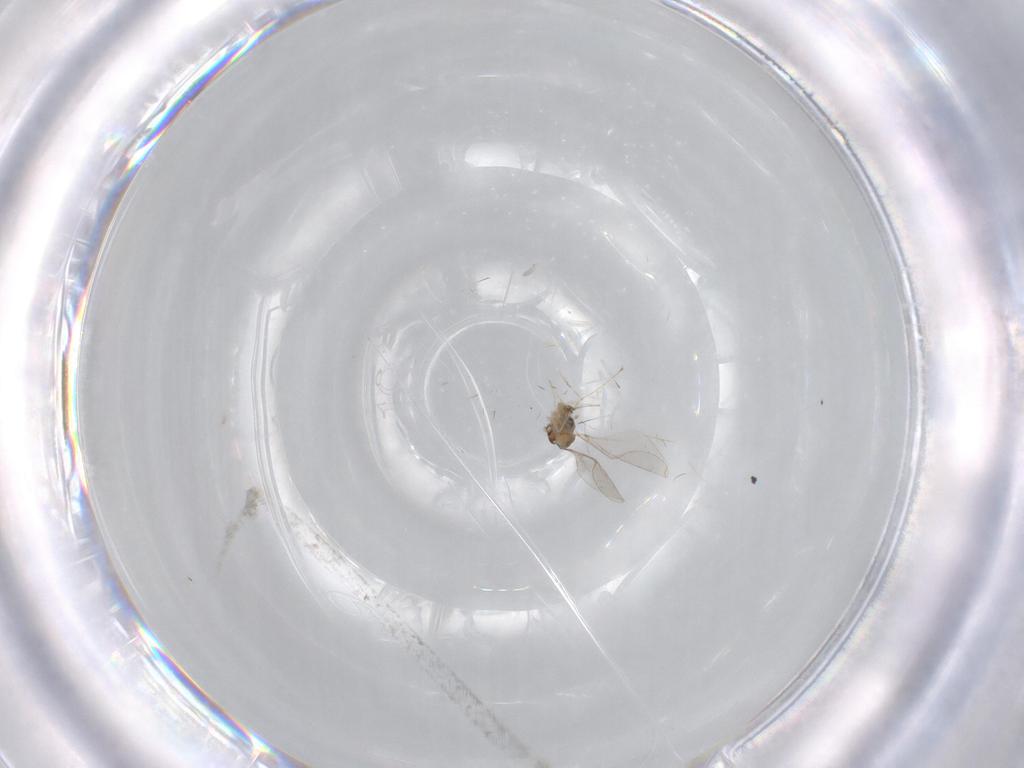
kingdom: Animalia
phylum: Arthropoda
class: Insecta
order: Diptera
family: Cecidomyiidae
